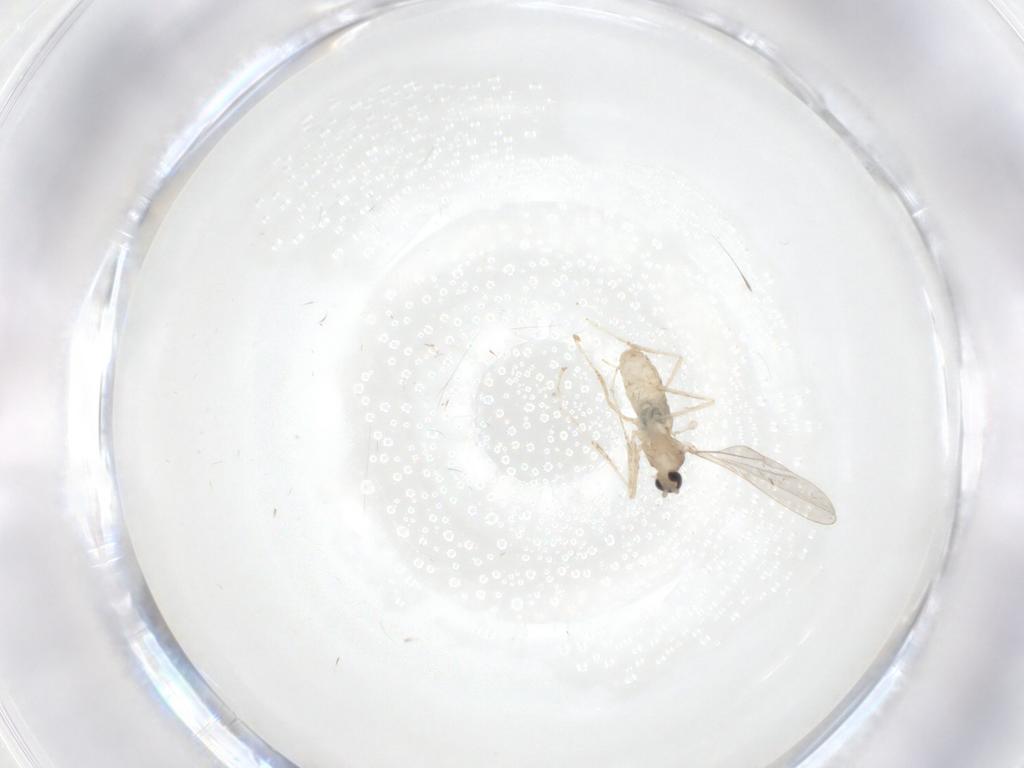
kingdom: Animalia
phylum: Arthropoda
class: Insecta
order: Diptera
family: Cecidomyiidae
